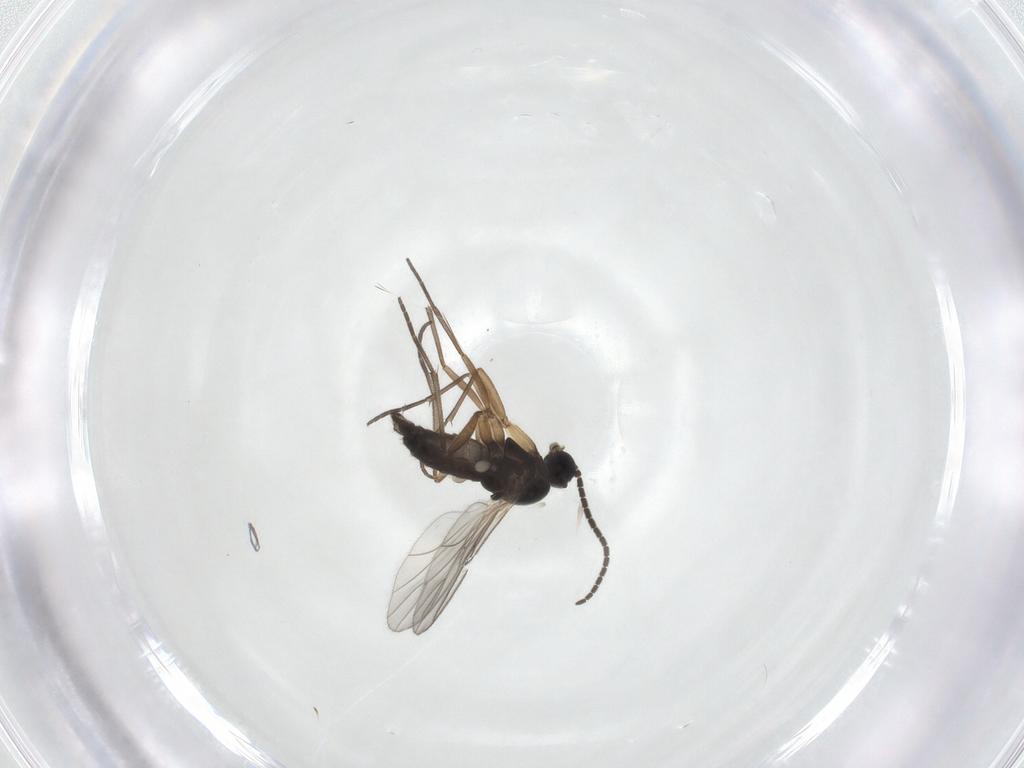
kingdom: Animalia
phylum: Arthropoda
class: Insecta
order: Diptera
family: Sciaridae
